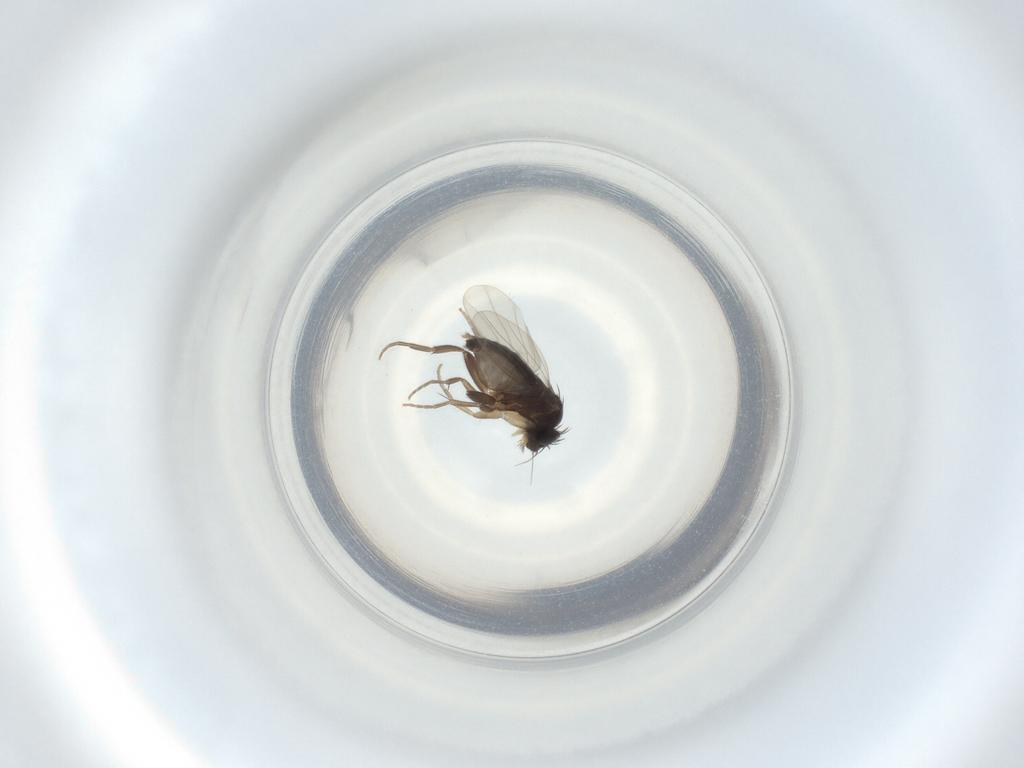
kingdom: Animalia
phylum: Arthropoda
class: Insecta
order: Diptera
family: Phoridae
